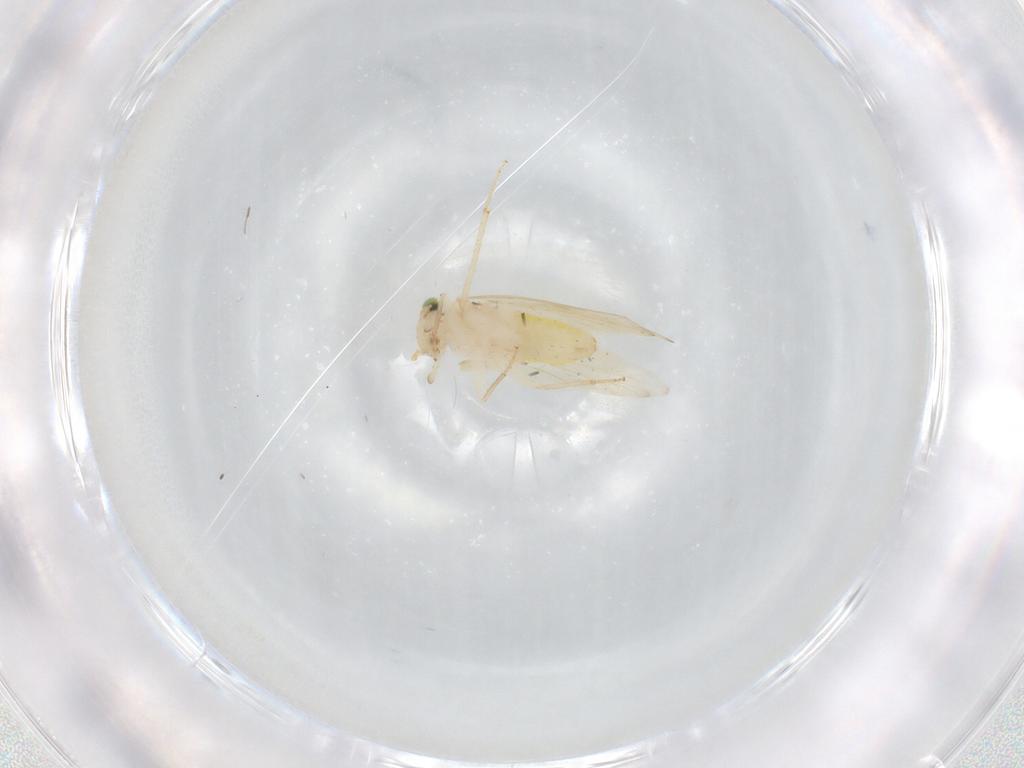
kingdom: Animalia
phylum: Arthropoda
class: Insecta
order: Psocodea
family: Lepidopsocidae
